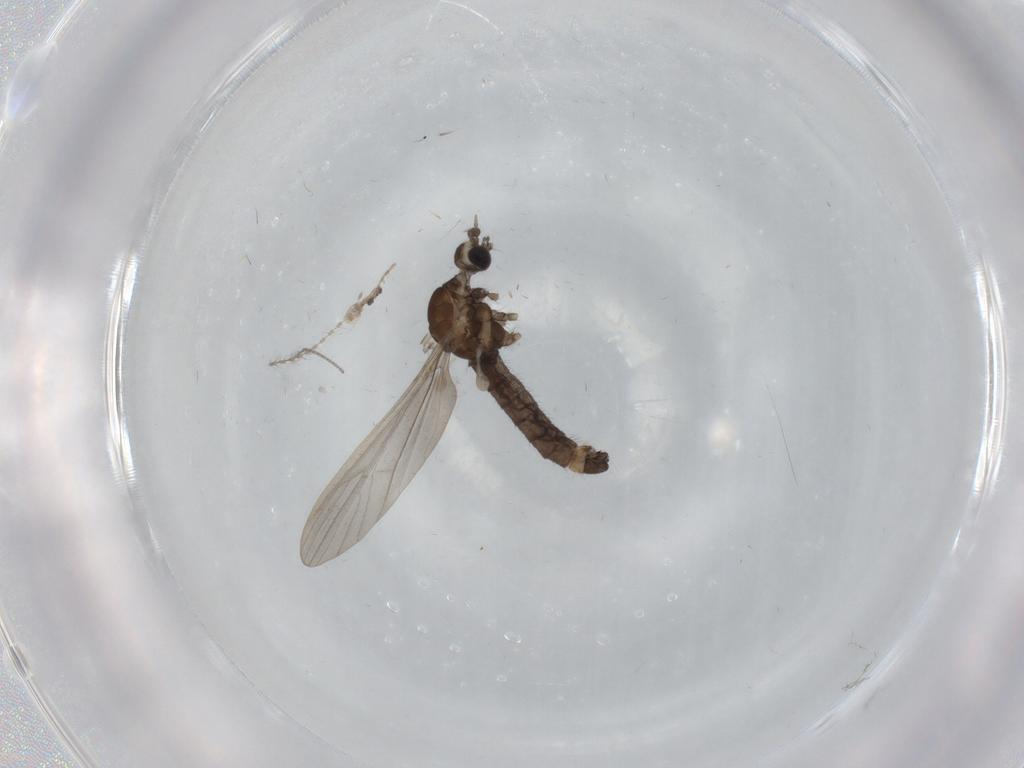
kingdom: Animalia
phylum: Arthropoda
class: Insecta
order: Diptera
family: Limoniidae
